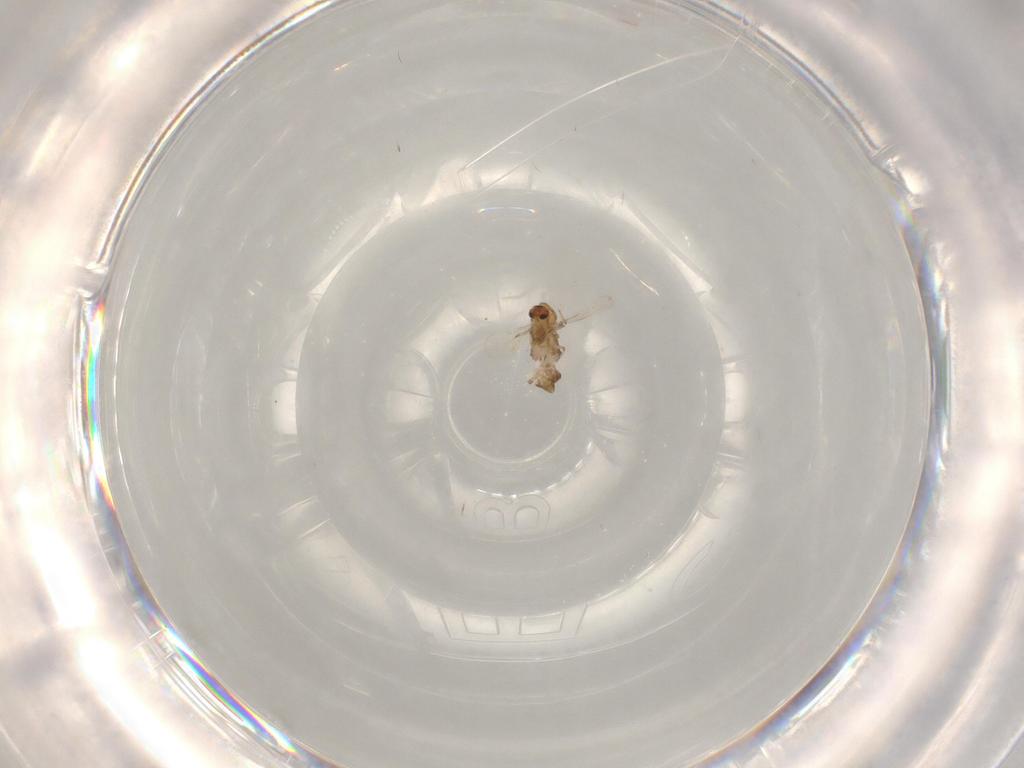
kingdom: Animalia
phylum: Arthropoda
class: Insecta
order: Diptera
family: Chironomidae
